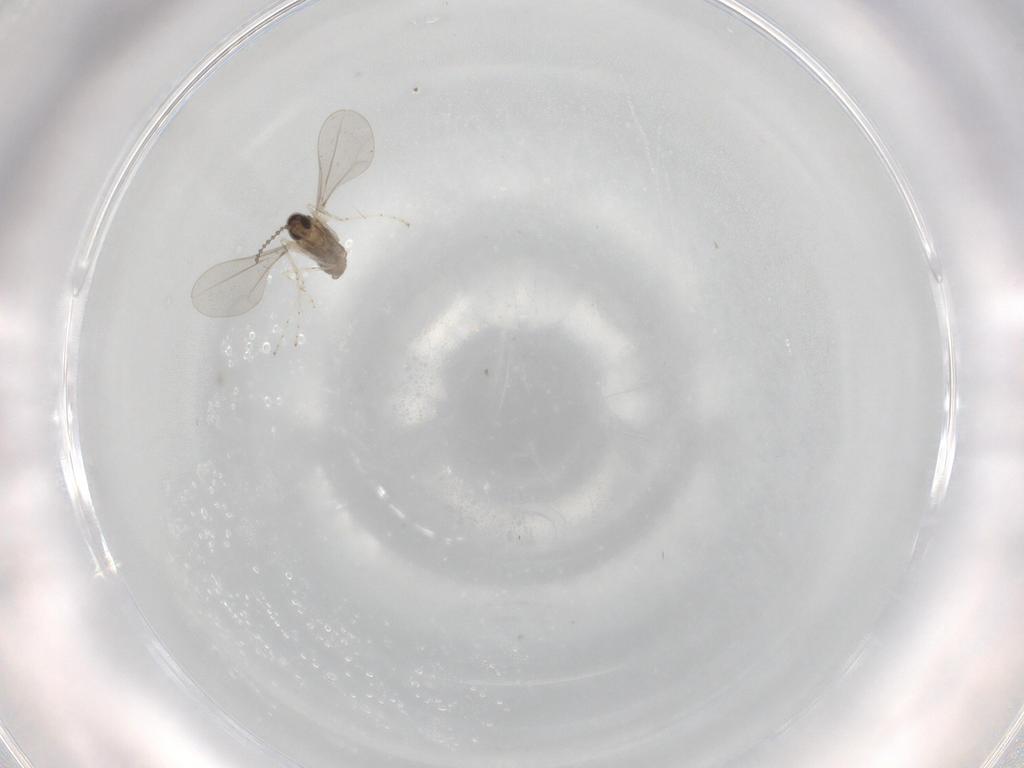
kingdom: Animalia
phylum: Arthropoda
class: Insecta
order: Diptera
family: Cecidomyiidae
